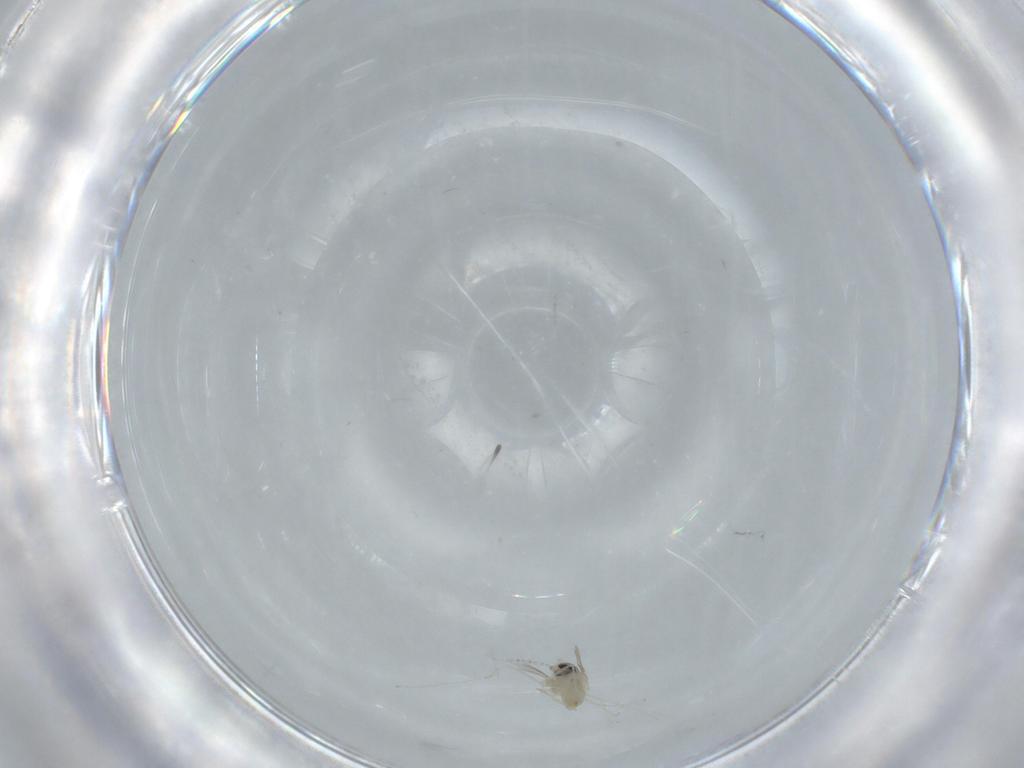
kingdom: Animalia
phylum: Arthropoda
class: Insecta
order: Diptera
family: Cecidomyiidae
